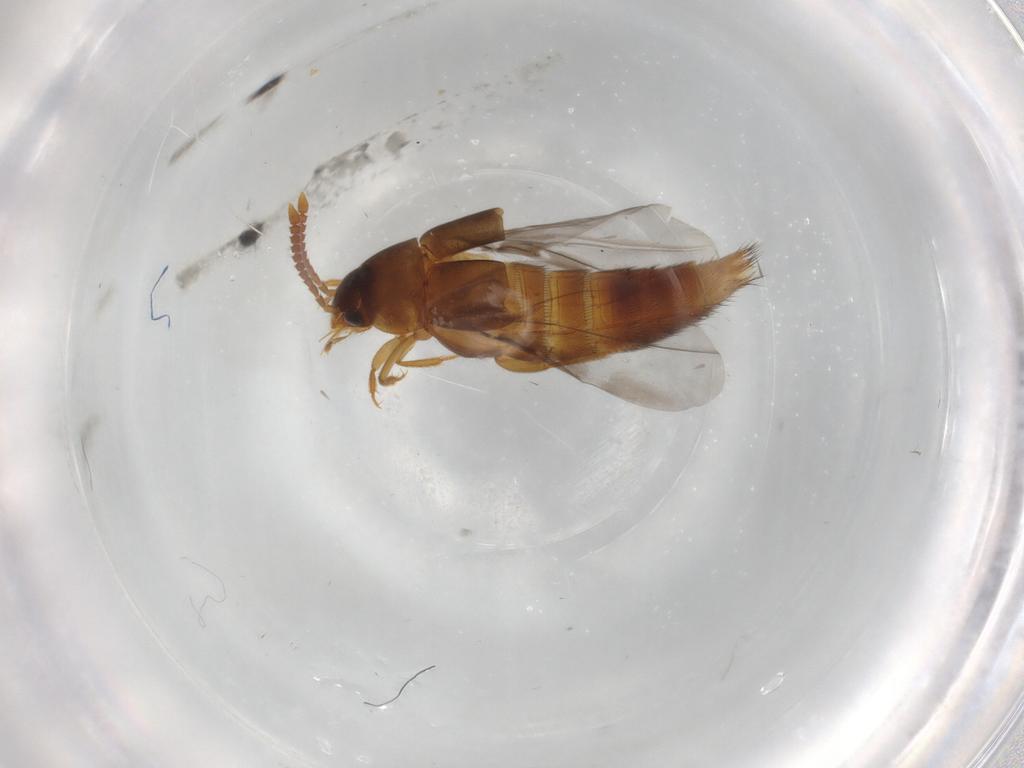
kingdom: Animalia
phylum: Arthropoda
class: Insecta
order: Coleoptera
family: Staphylinidae
